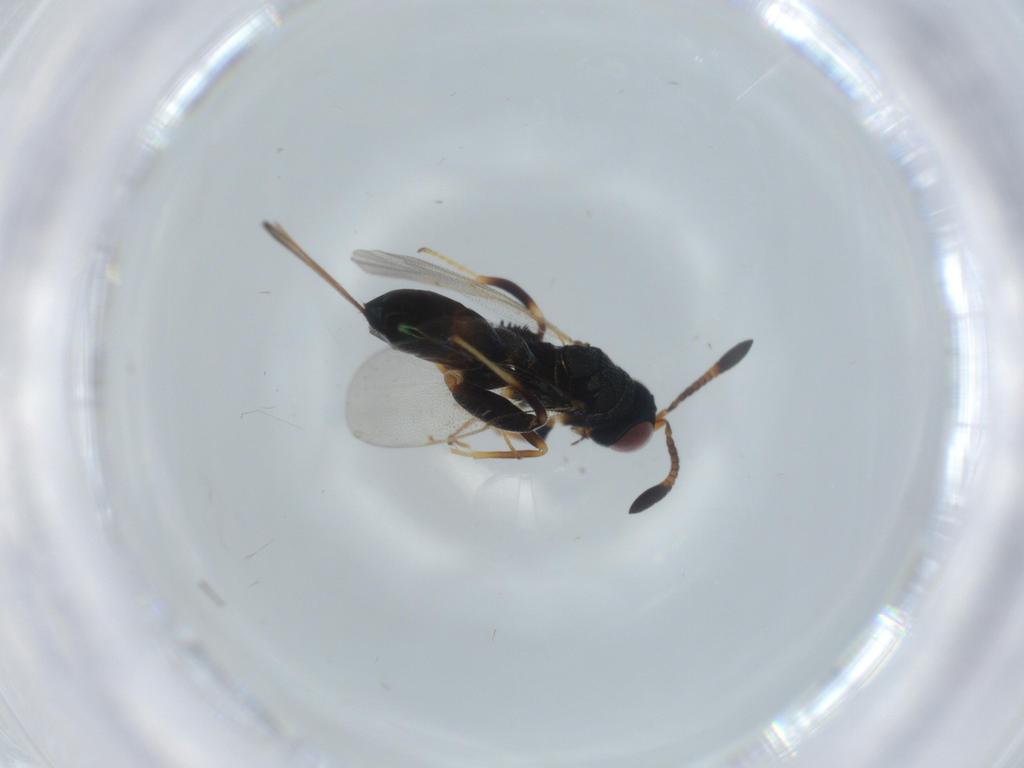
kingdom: Animalia
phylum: Arthropoda
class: Insecta
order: Hymenoptera
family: Torymidae
